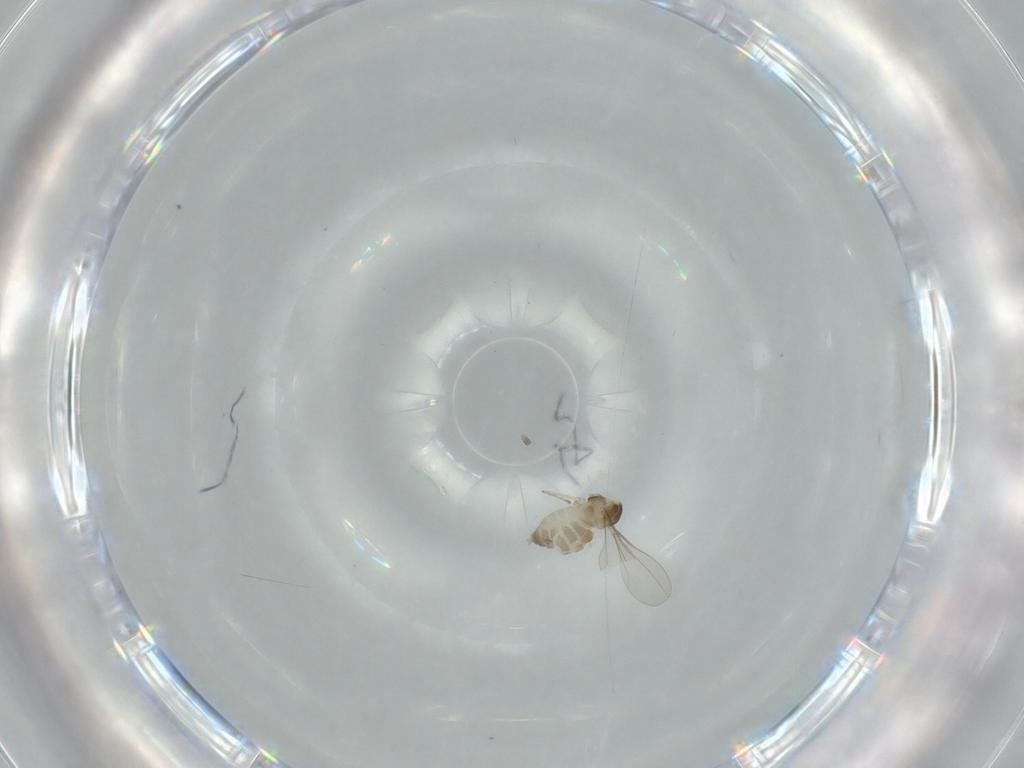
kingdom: Animalia
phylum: Arthropoda
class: Insecta
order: Diptera
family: Cecidomyiidae
